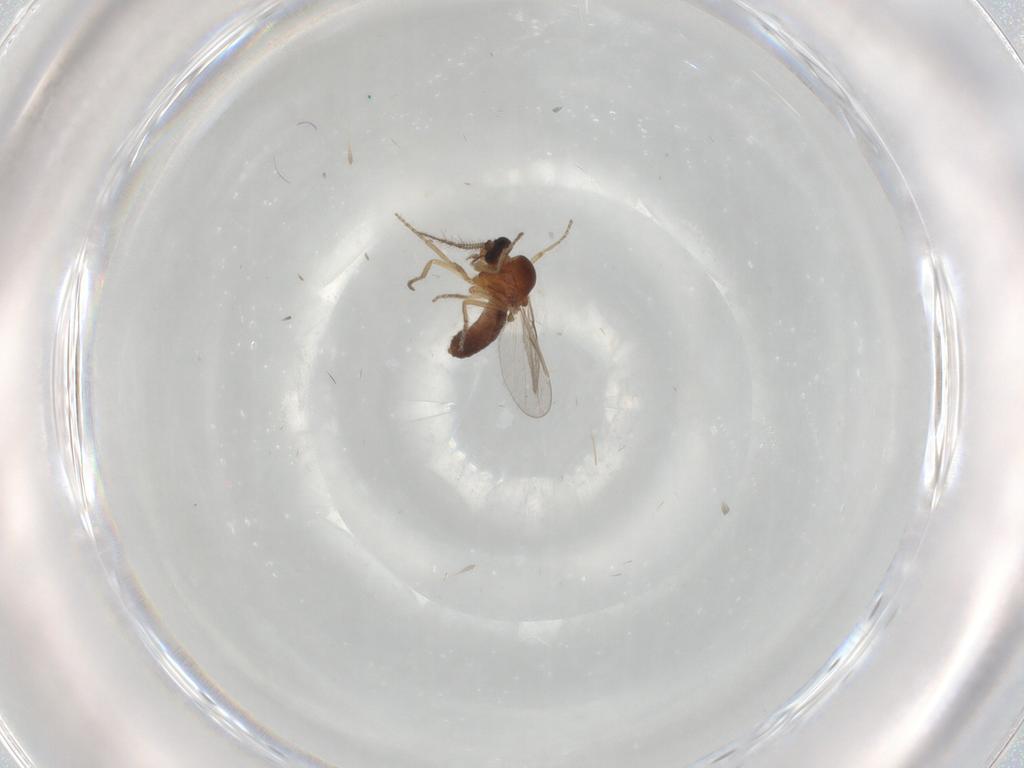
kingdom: Animalia
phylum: Arthropoda
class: Insecta
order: Diptera
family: Ceratopogonidae
